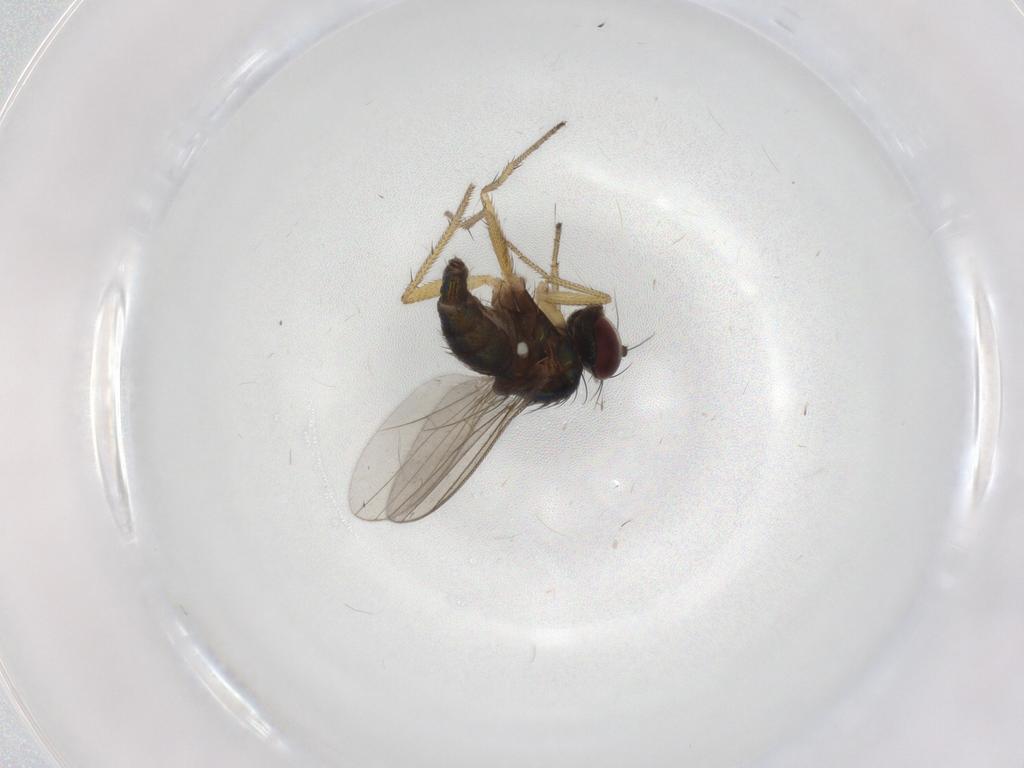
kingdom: Animalia
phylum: Arthropoda
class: Insecta
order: Diptera
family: Dolichopodidae
